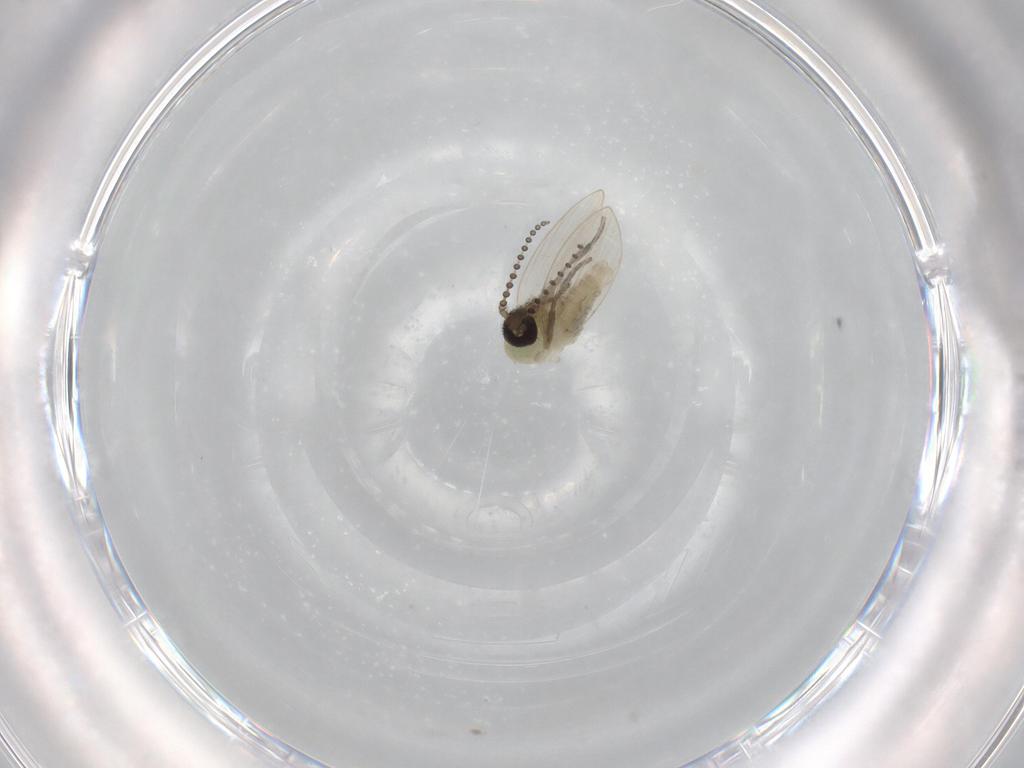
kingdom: Animalia
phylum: Arthropoda
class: Insecta
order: Diptera
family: Psychodidae
